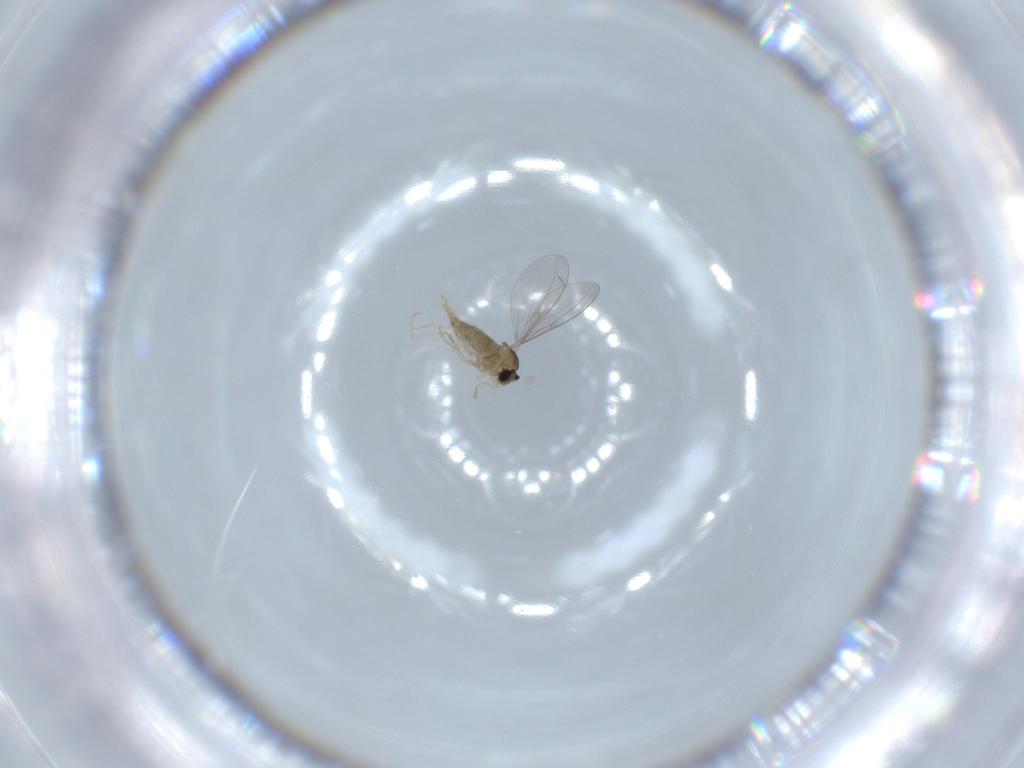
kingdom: Animalia
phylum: Arthropoda
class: Insecta
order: Diptera
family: Cecidomyiidae
